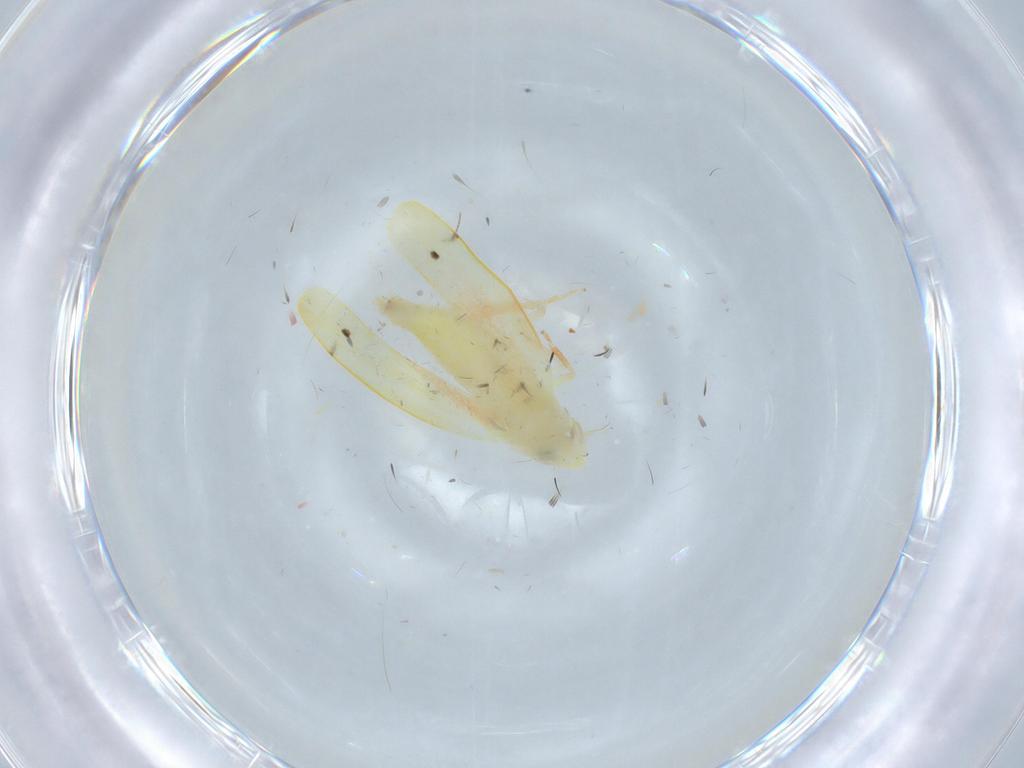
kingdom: Animalia
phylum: Arthropoda
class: Insecta
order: Hemiptera
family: Cicadellidae
